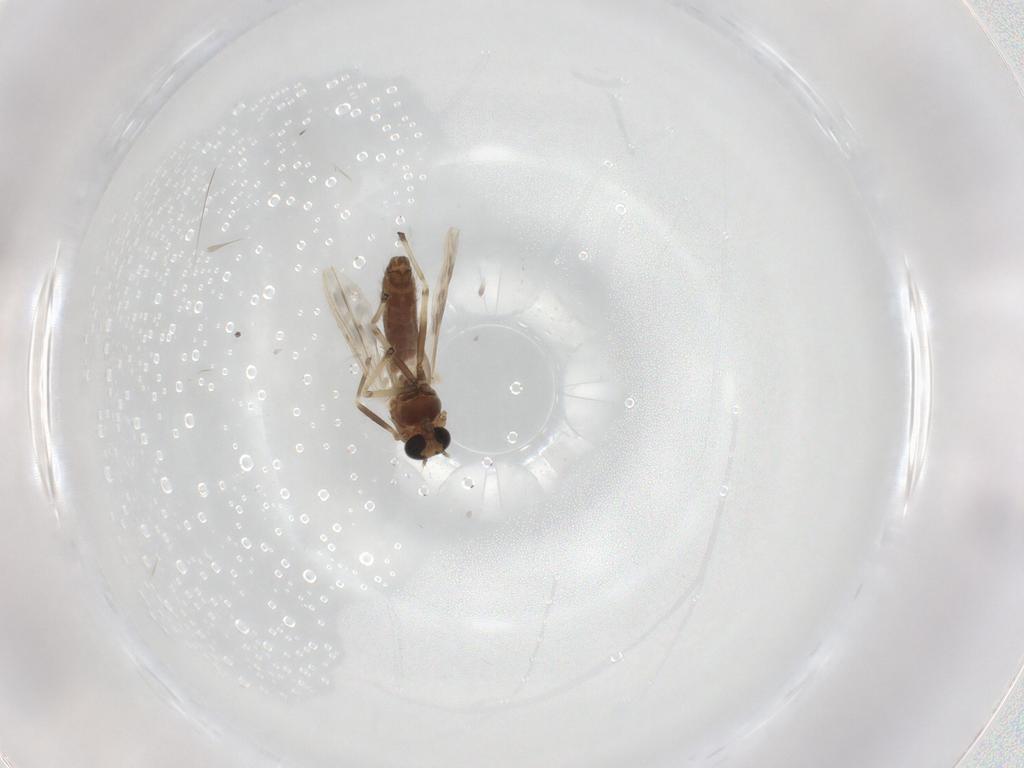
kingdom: Animalia
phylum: Arthropoda
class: Insecta
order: Diptera
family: Chironomidae
